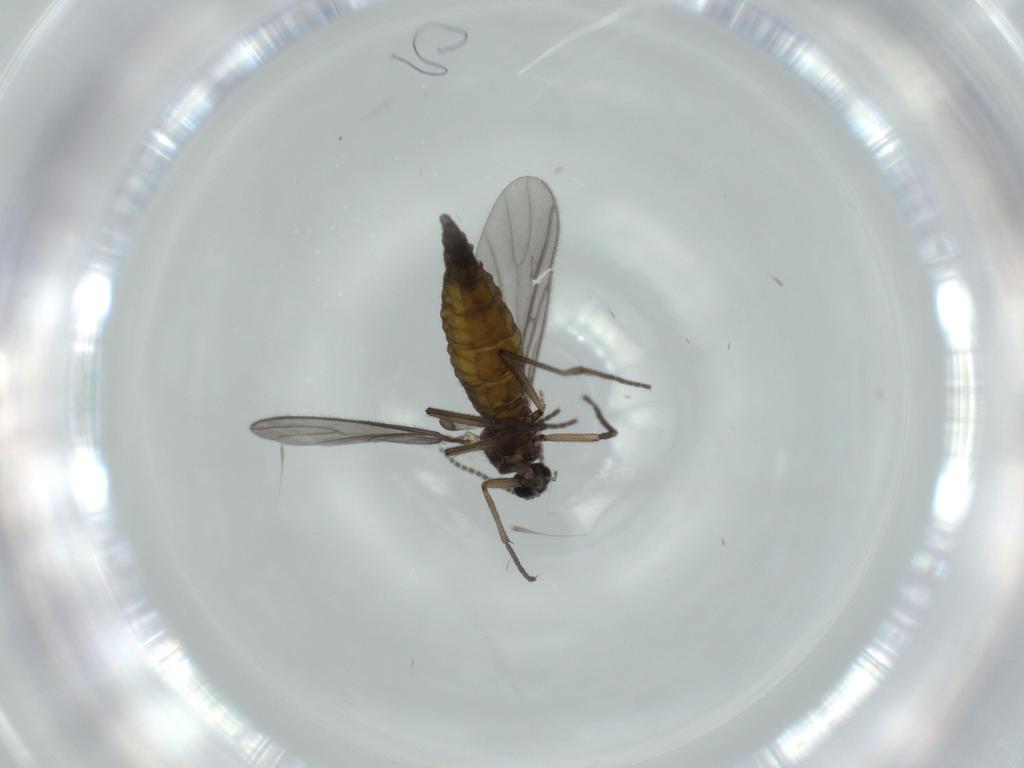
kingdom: Animalia
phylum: Arthropoda
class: Insecta
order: Diptera
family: Sciaridae
